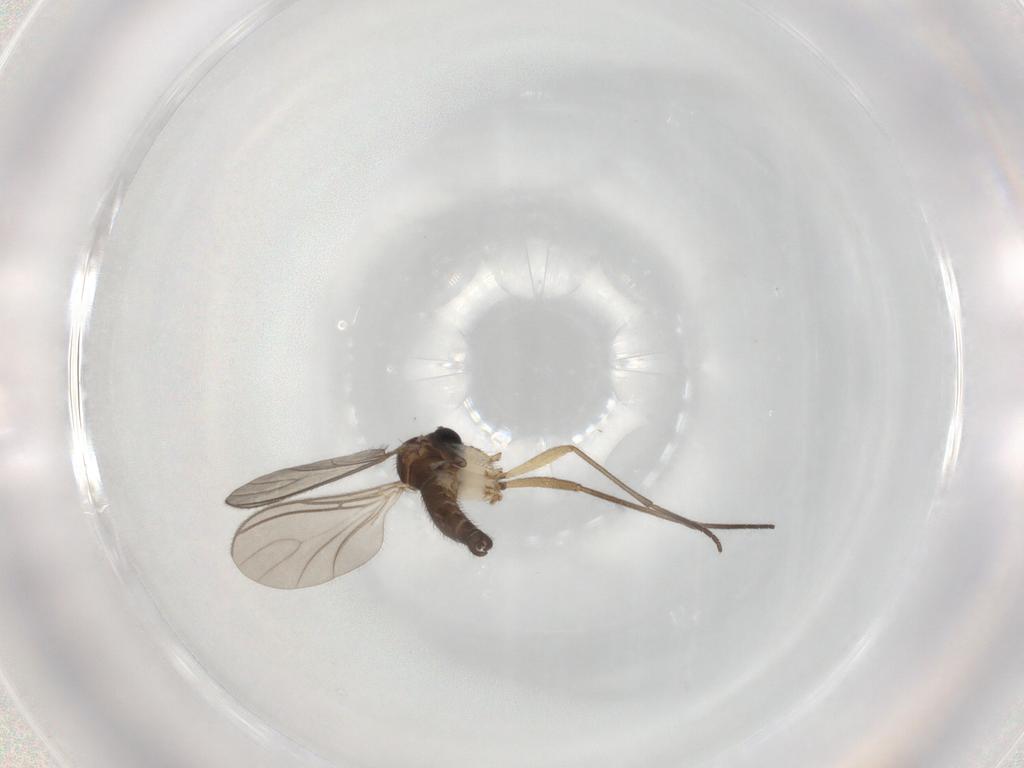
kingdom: Animalia
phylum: Arthropoda
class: Insecta
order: Diptera
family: Sciaridae
